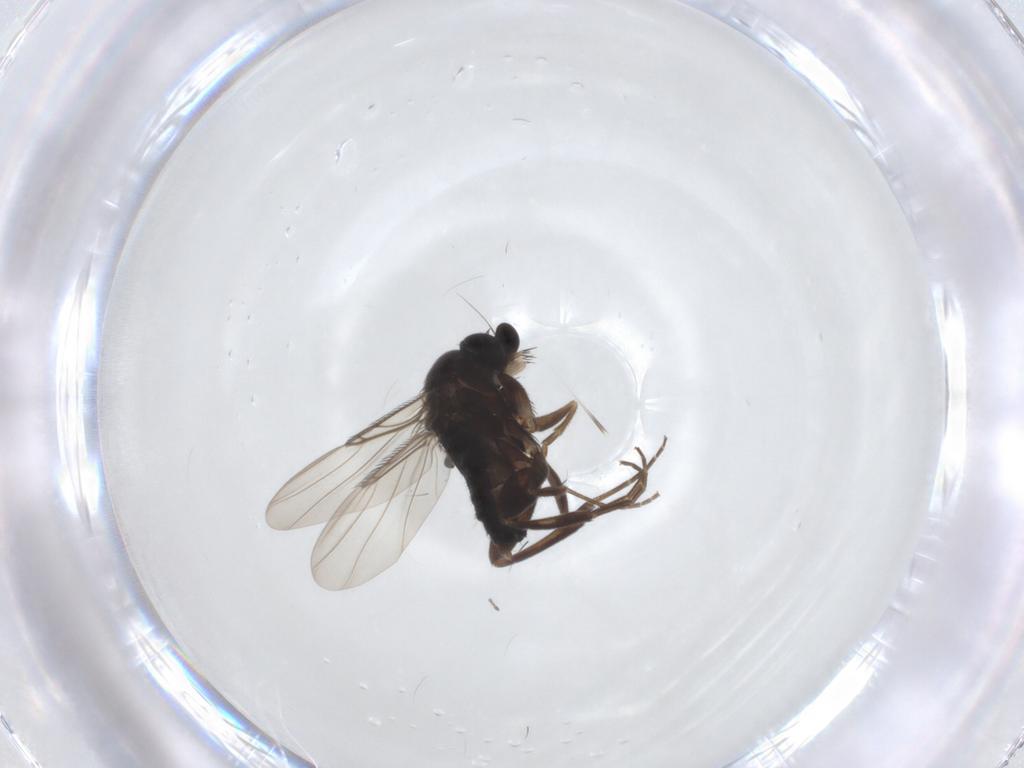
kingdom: Animalia
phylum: Arthropoda
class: Insecta
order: Diptera
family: Phoridae
